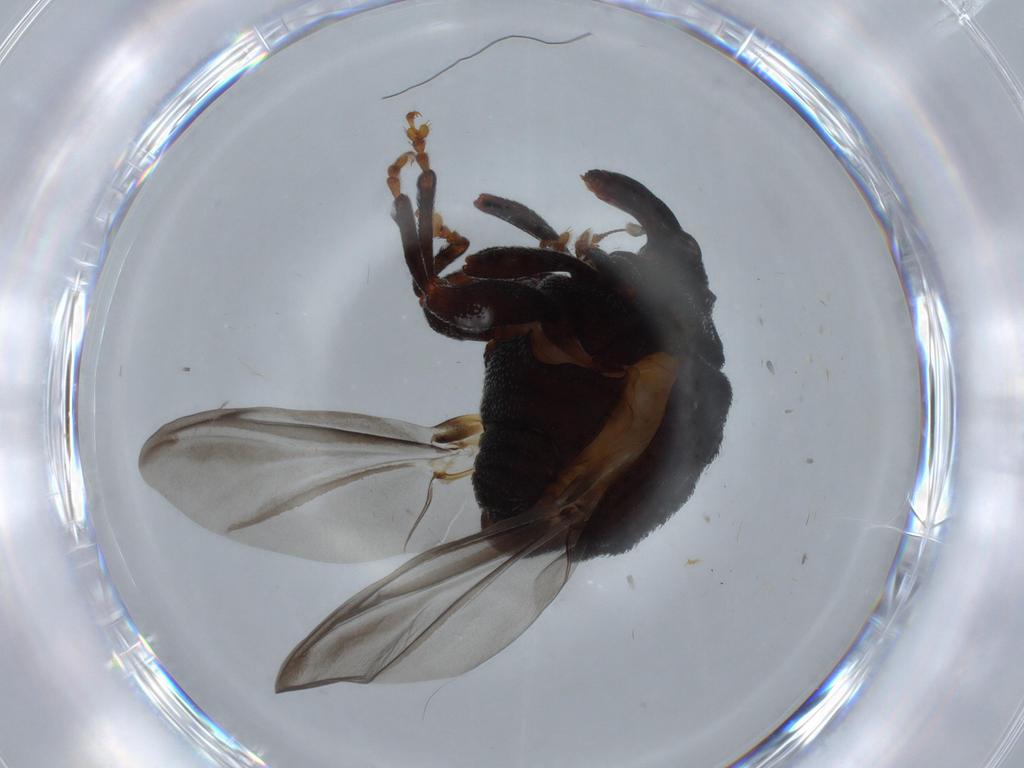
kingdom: Animalia
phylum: Arthropoda
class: Insecta
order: Coleoptera
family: Curculionidae
